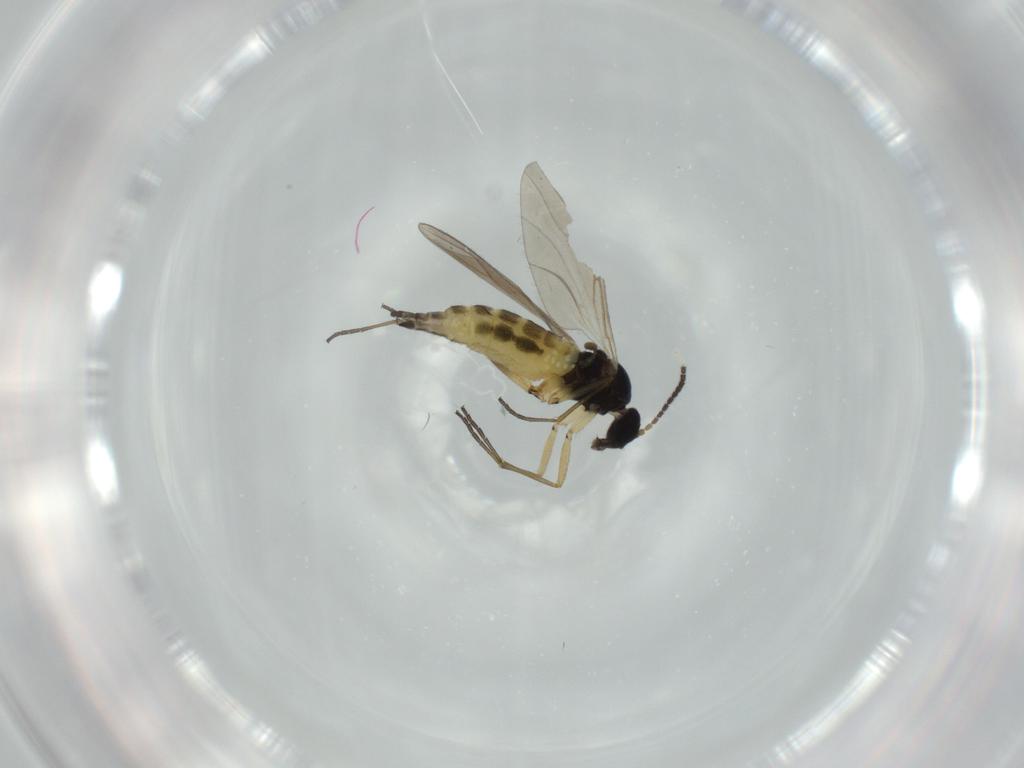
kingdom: Animalia
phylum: Arthropoda
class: Insecta
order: Diptera
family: Sciaridae
